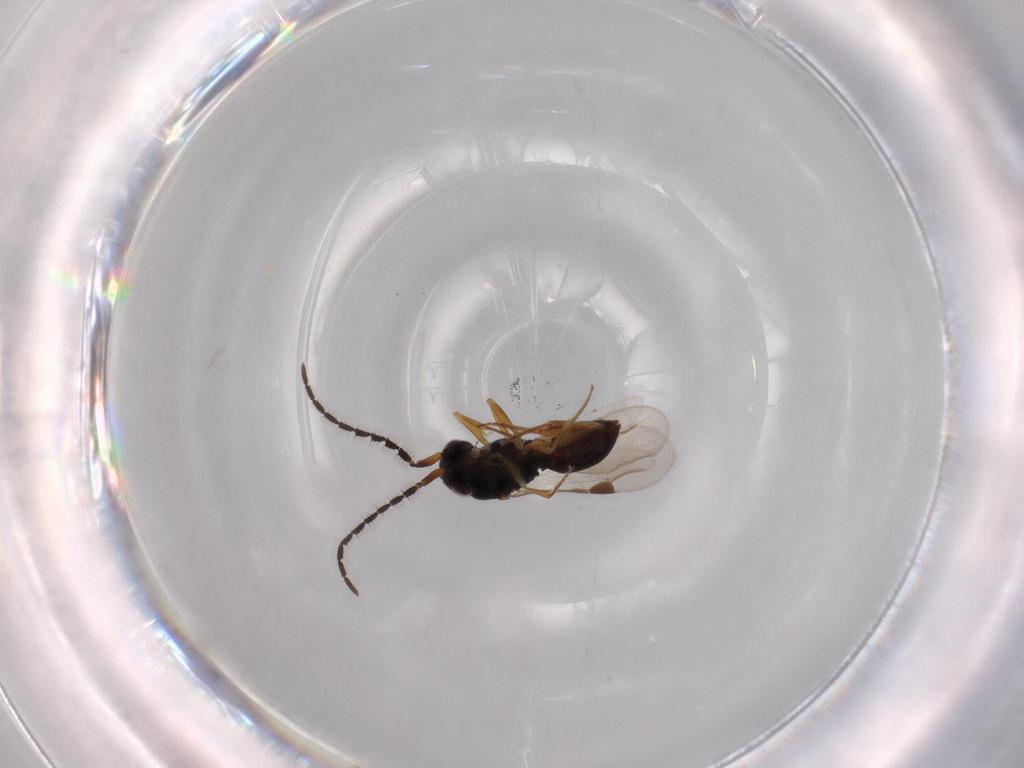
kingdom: Animalia
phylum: Arthropoda
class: Insecta
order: Hymenoptera
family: Megaspilidae
